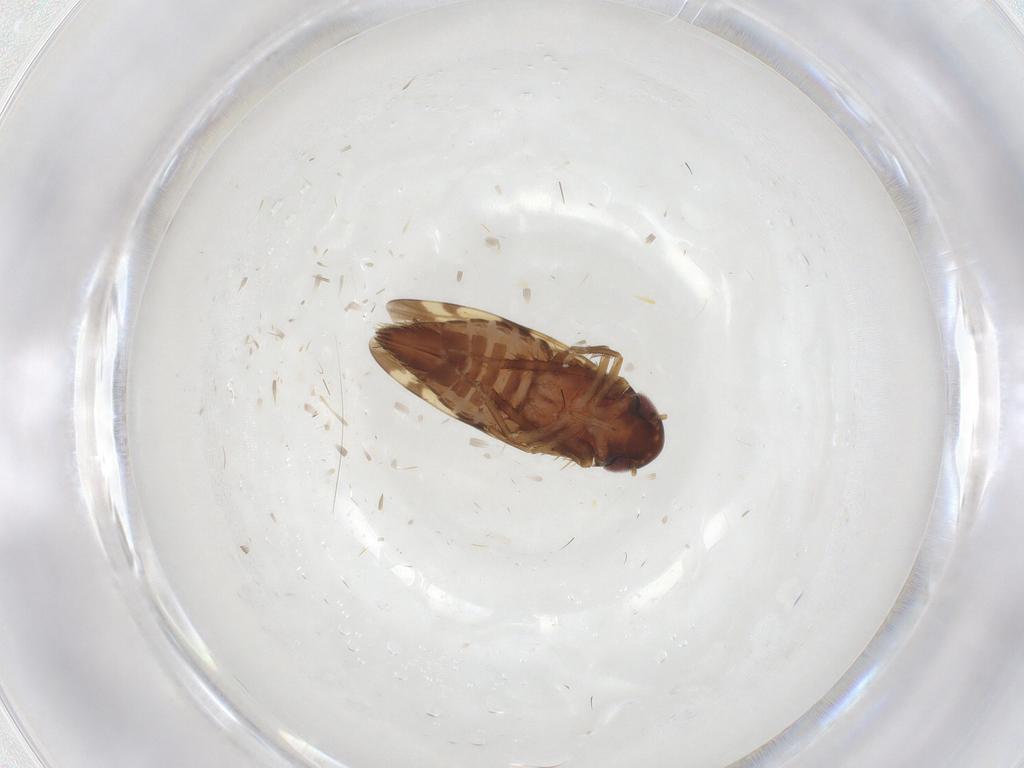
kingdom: Animalia
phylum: Arthropoda
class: Insecta
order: Hemiptera
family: Cicadellidae
